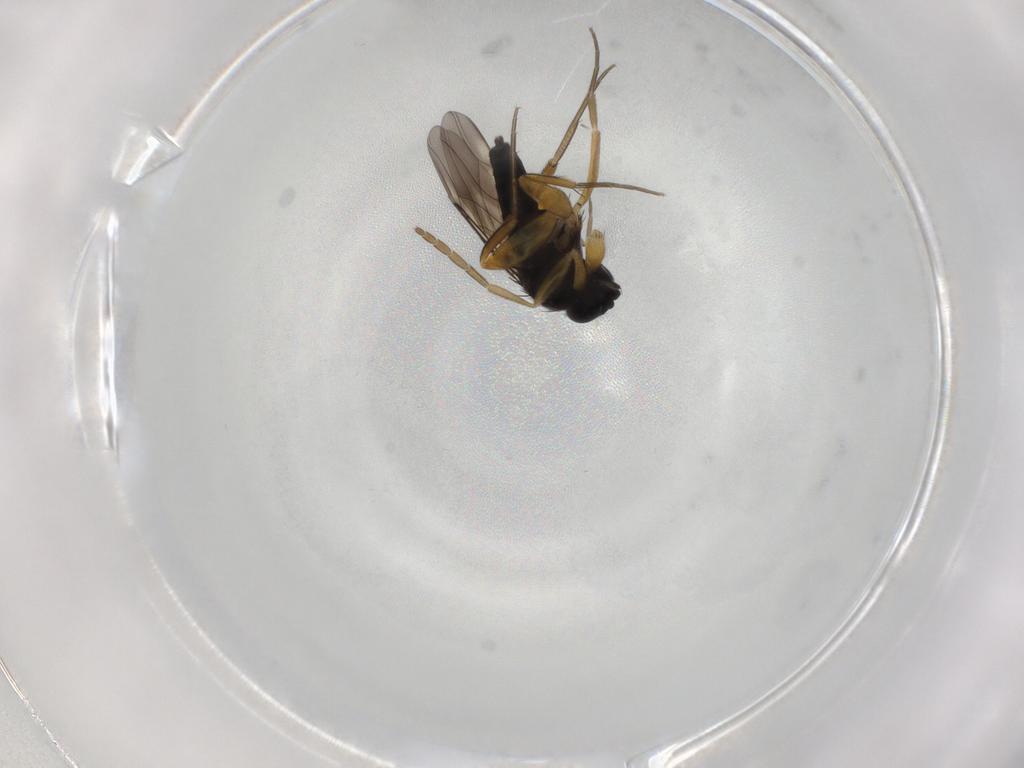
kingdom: Animalia
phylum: Arthropoda
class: Insecta
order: Diptera
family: Phoridae
